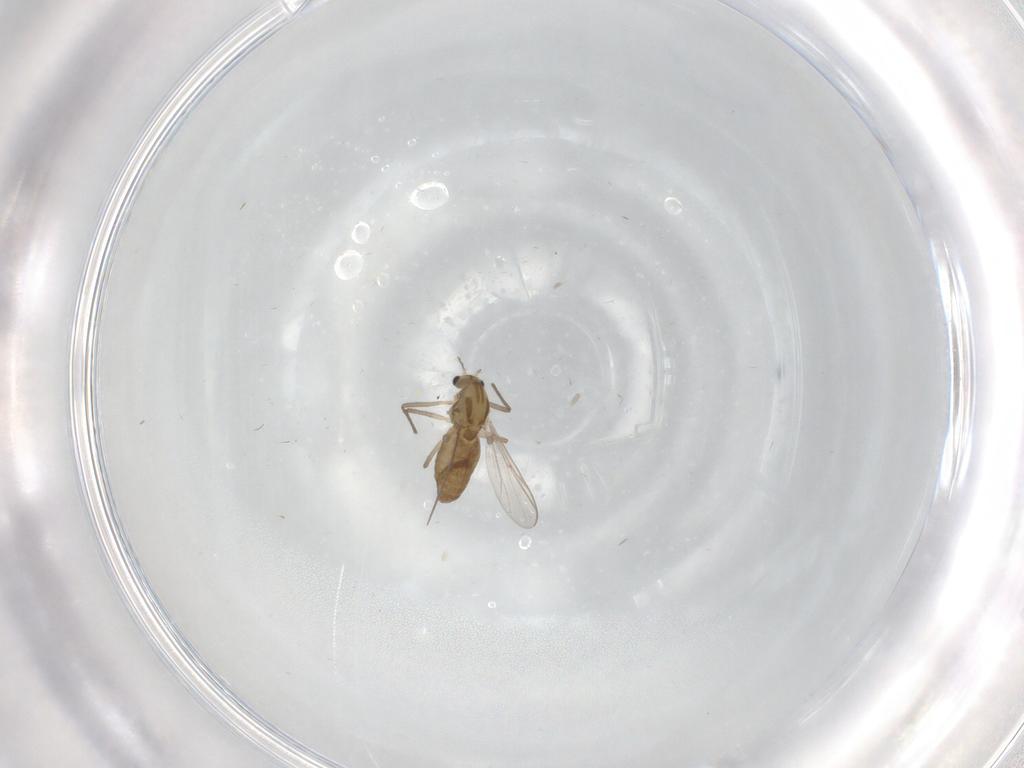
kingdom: Animalia
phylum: Arthropoda
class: Insecta
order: Diptera
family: Chironomidae
